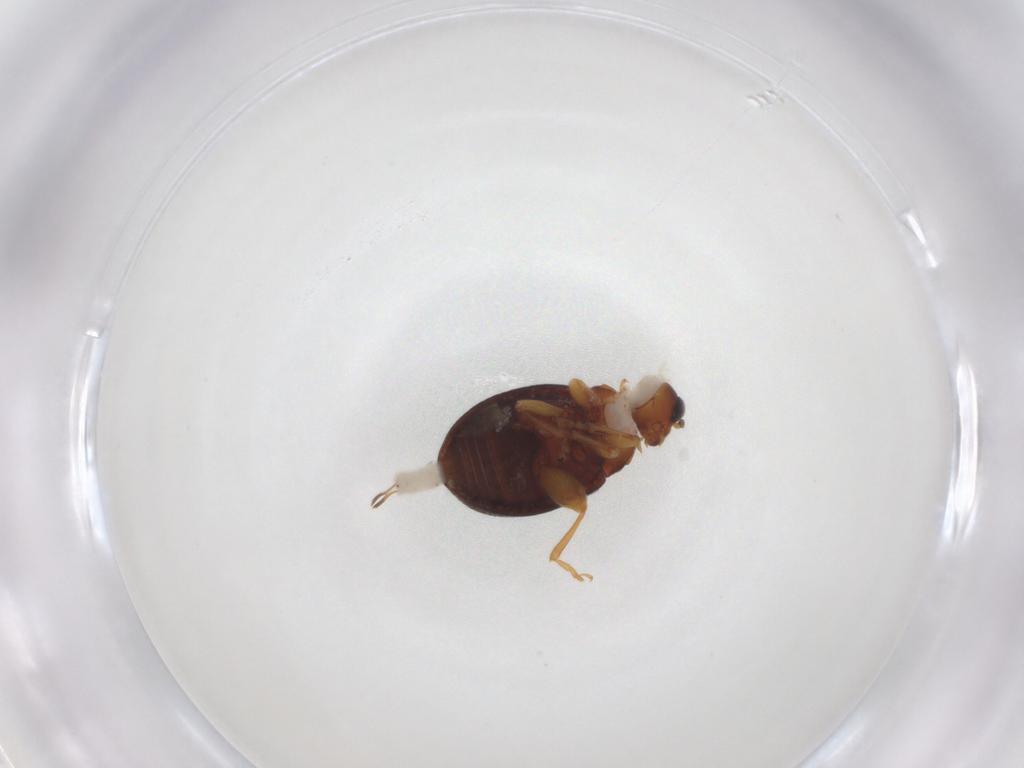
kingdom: Animalia
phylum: Arthropoda
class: Insecta
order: Coleoptera
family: Chrysomelidae
